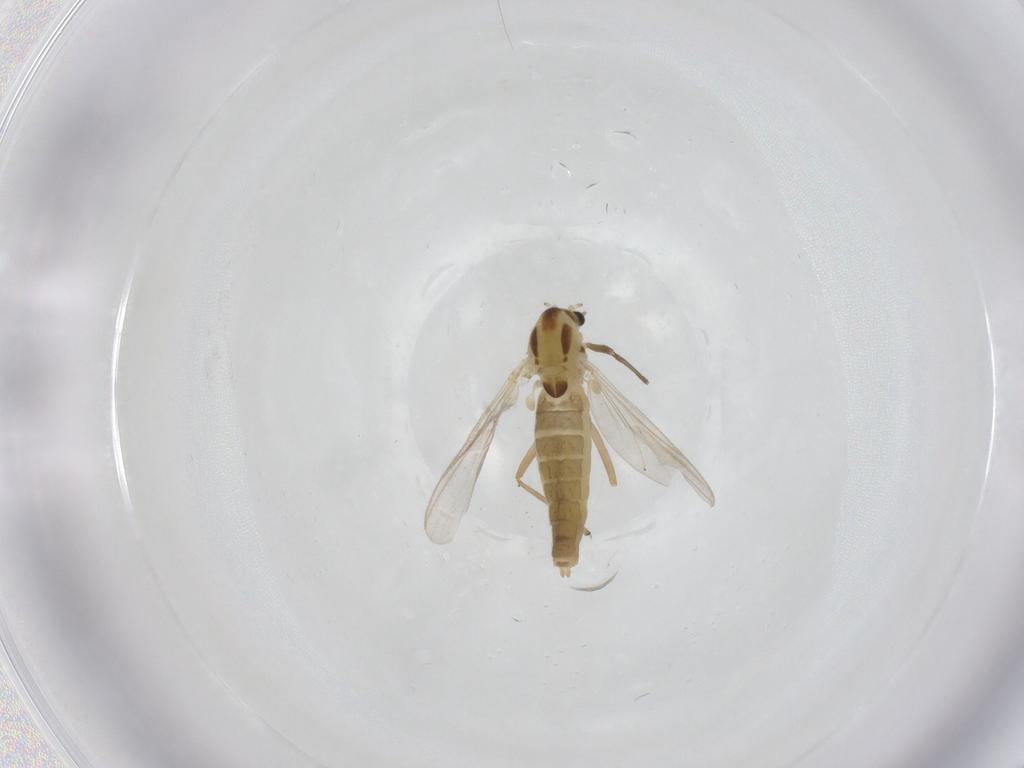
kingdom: Animalia
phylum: Arthropoda
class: Insecta
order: Diptera
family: Chironomidae
